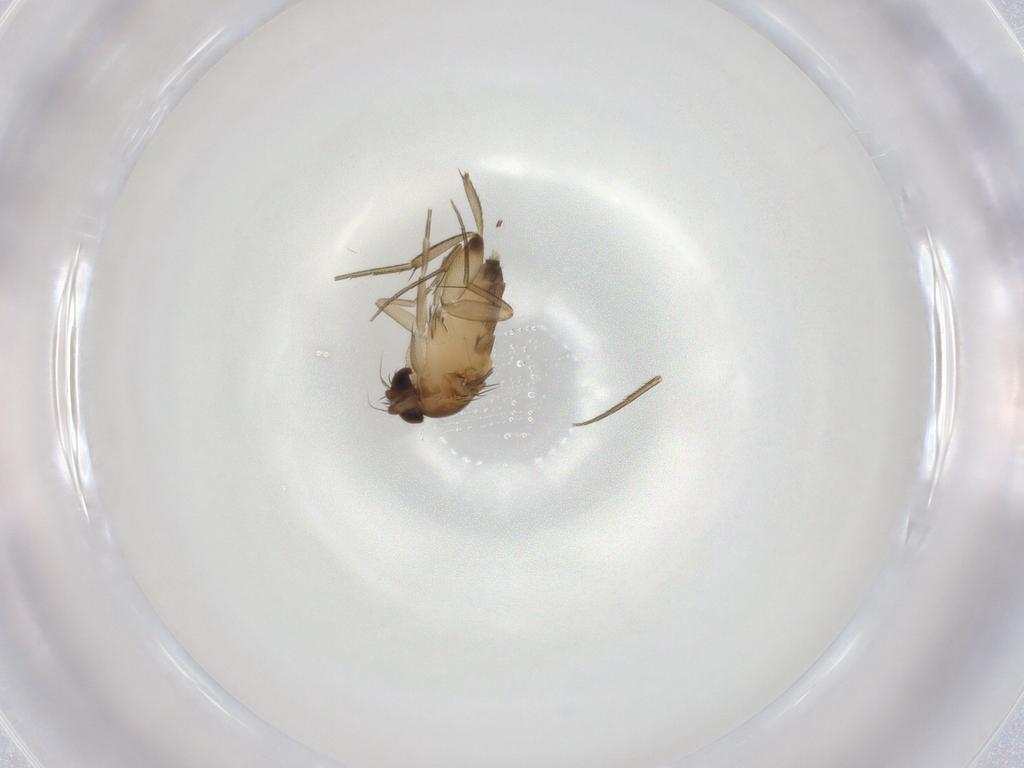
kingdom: Animalia
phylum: Arthropoda
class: Insecta
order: Diptera
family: Phoridae
